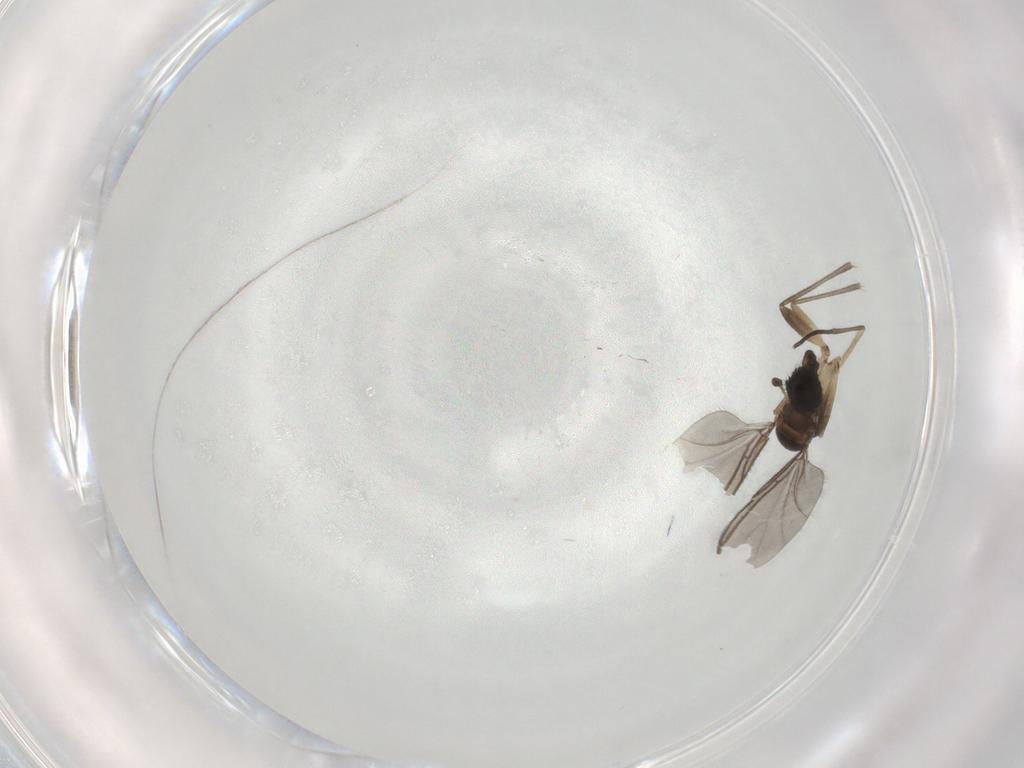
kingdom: Animalia
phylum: Arthropoda
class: Insecta
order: Diptera
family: Sciaridae
